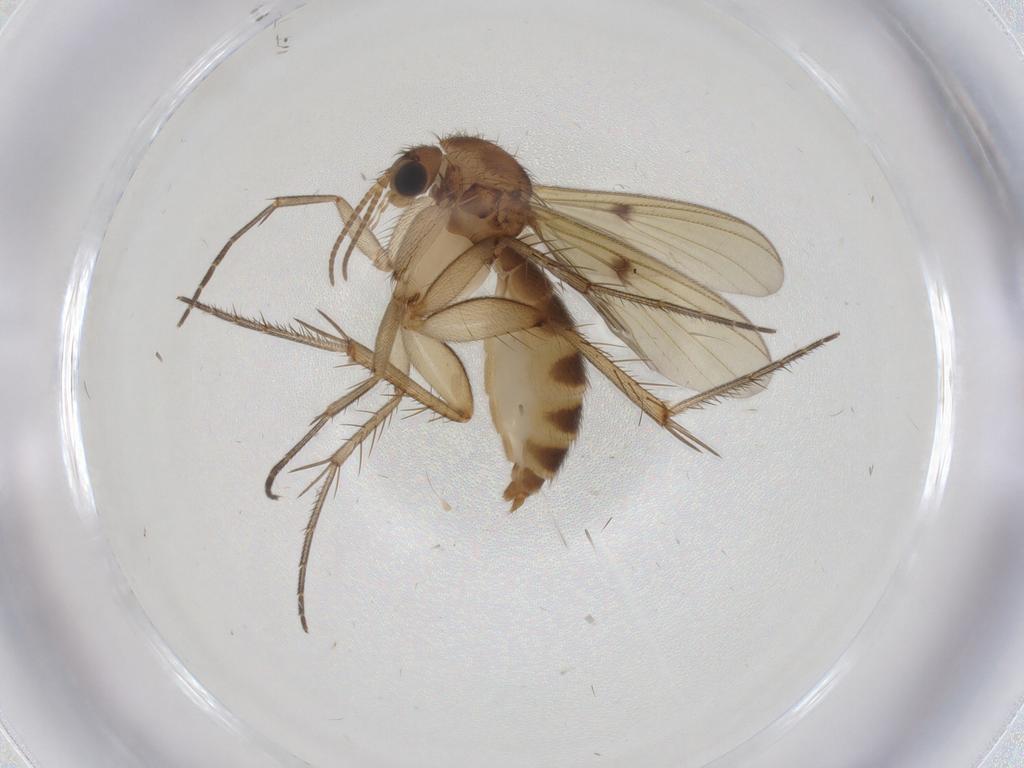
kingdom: Animalia
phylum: Arthropoda
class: Insecta
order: Diptera
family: Cecidomyiidae
